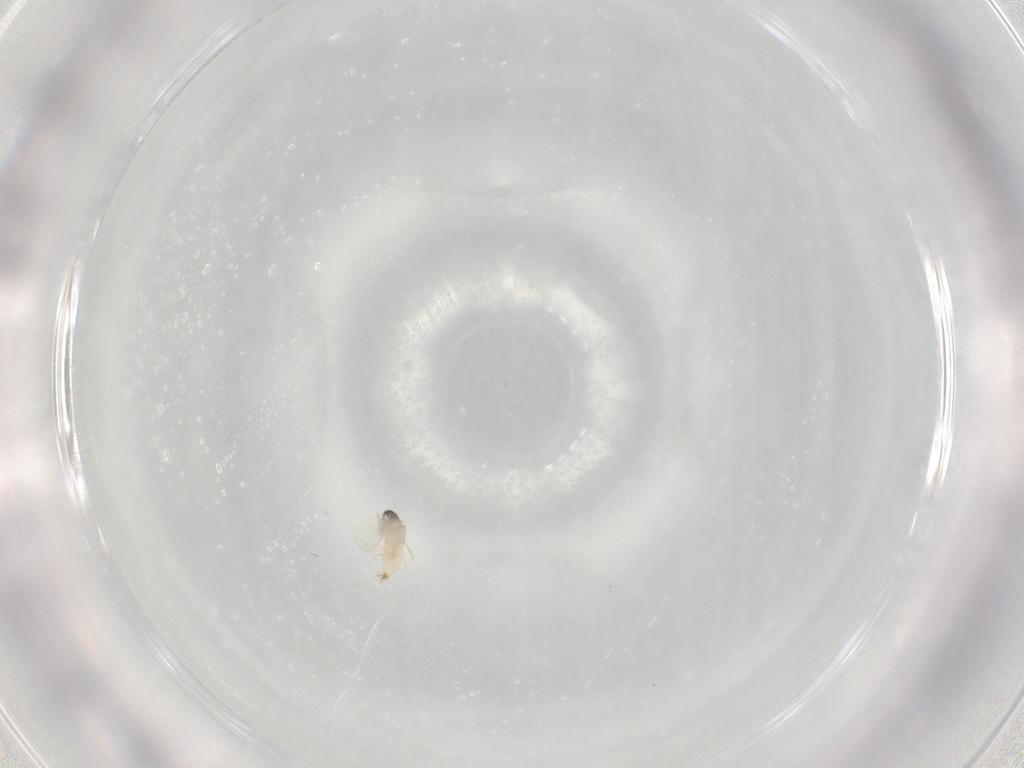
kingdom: Animalia
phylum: Arthropoda
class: Insecta
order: Diptera
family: Cecidomyiidae
